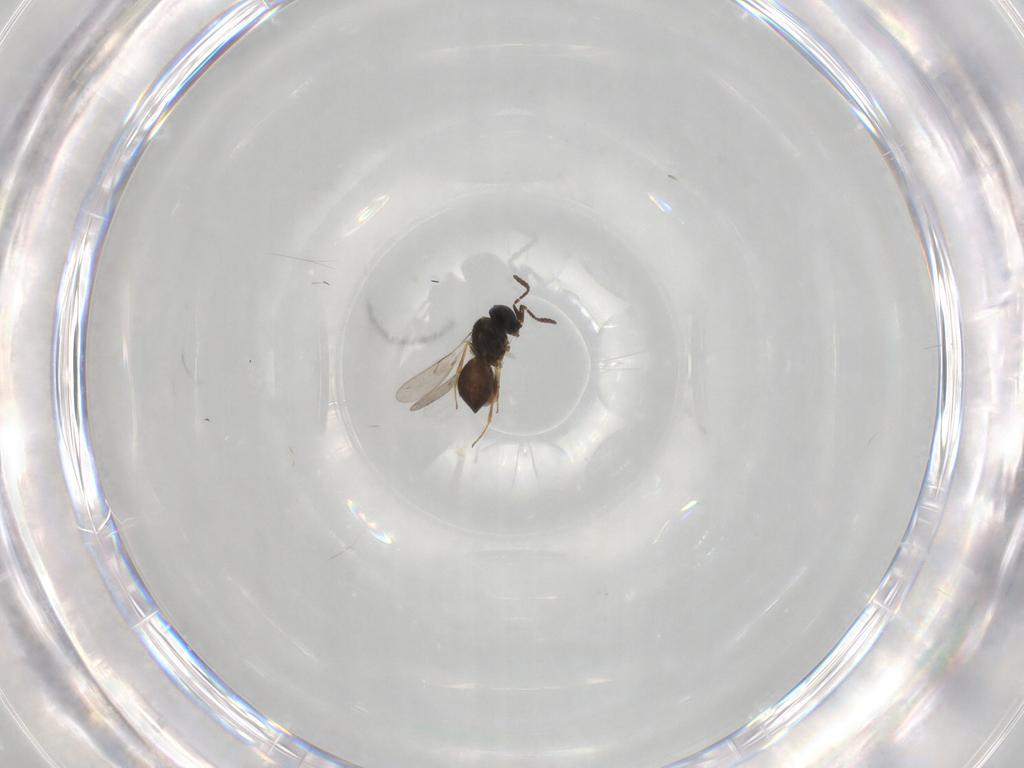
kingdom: Animalia
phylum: Arthropoda
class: Insecta
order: Hymenoptera
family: Scelionidae
